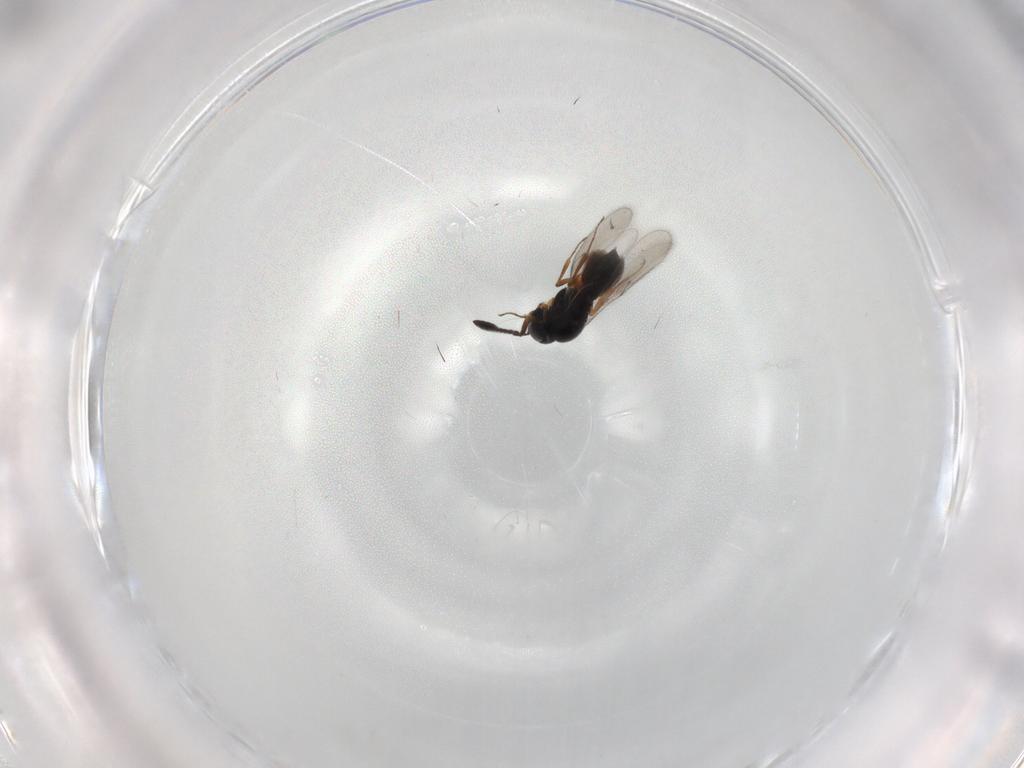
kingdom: Animalia
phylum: Arthropoda
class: Insecta
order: Hymenoptera
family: Scelionidae
